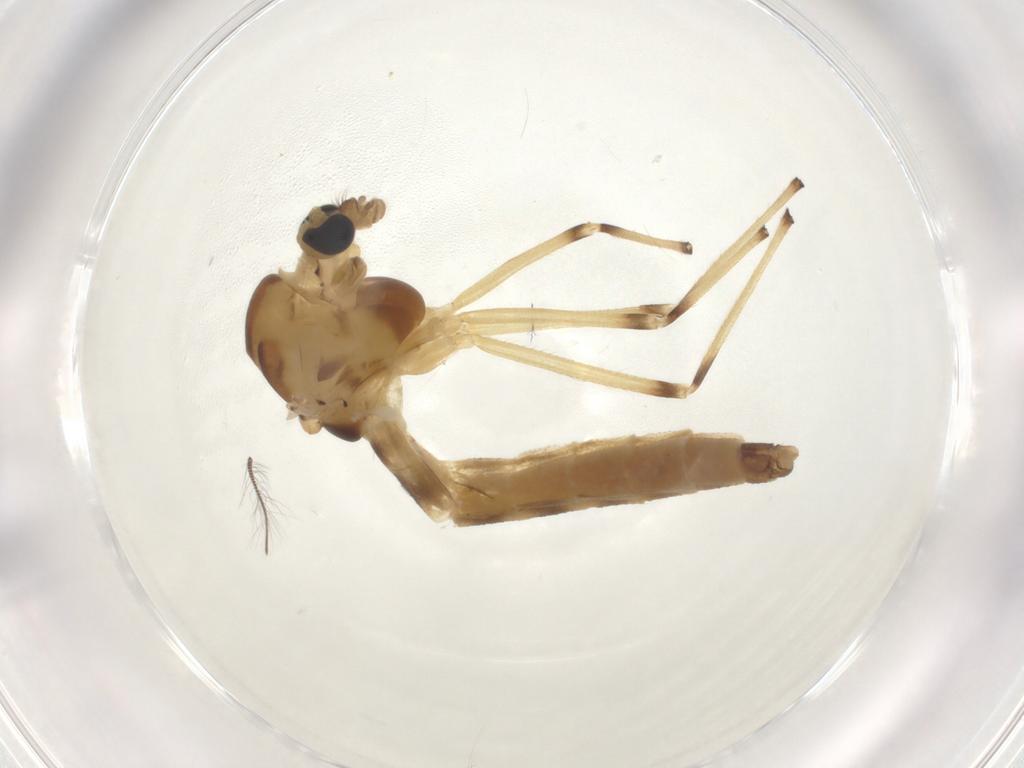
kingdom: Animalia
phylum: Arthropoda
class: Insecta
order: Diptera
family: Chironomidae
